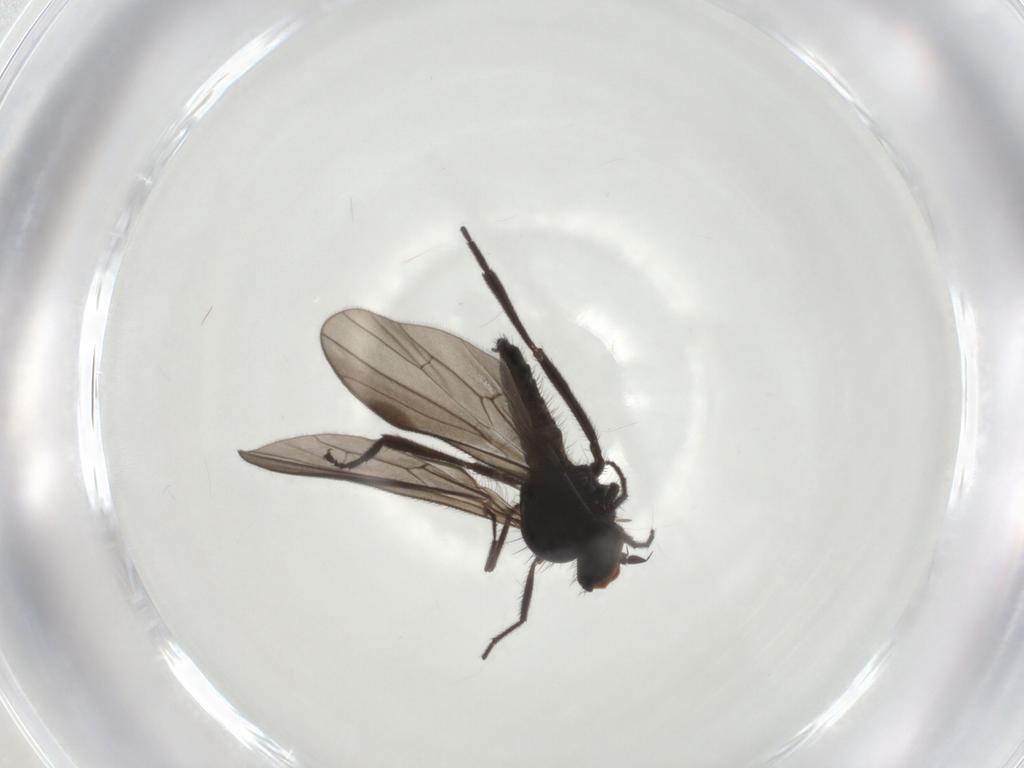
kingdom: Animalia
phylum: Arthropoda
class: Insecta
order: Diptera
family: Hybotidae
